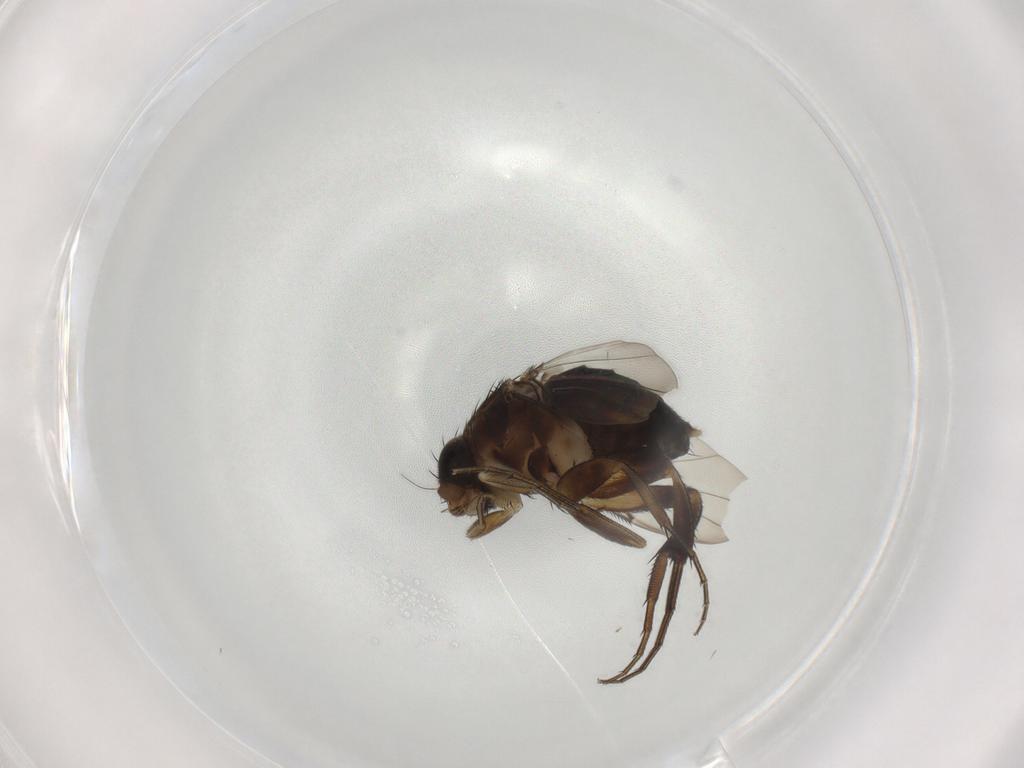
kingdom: Animalia
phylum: Arthropoda
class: Insecta
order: Diptera
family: Phoridae
